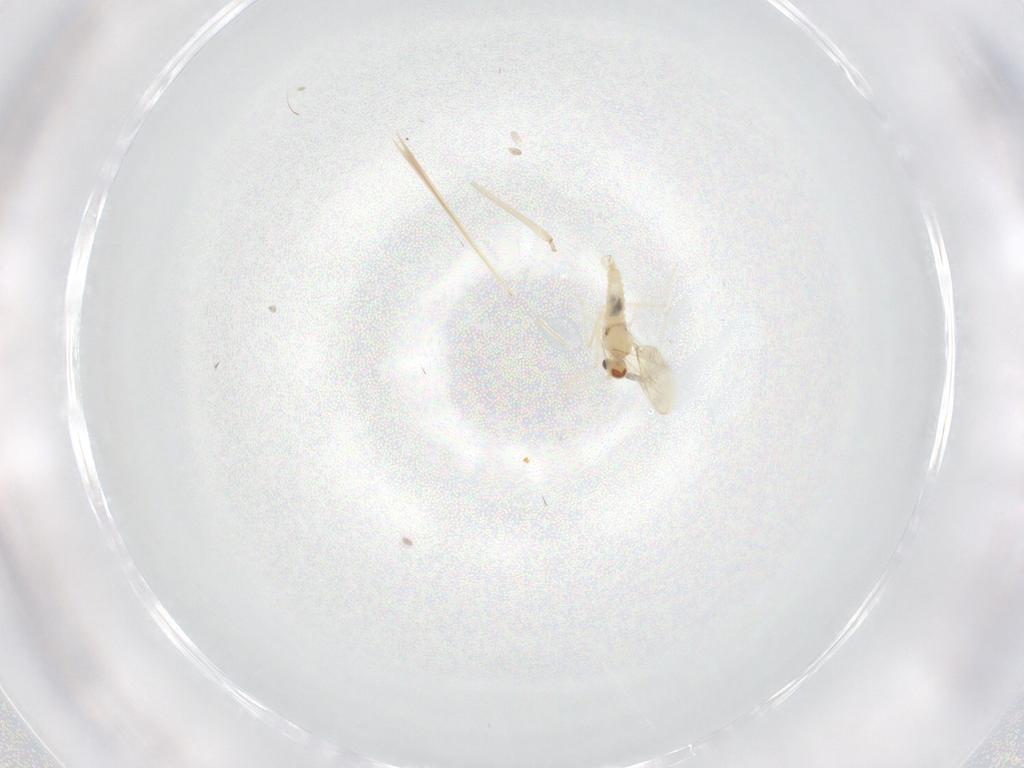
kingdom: Animalia
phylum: Arthropoda
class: Insecta
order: Diptera
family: Cecidomyiidae
